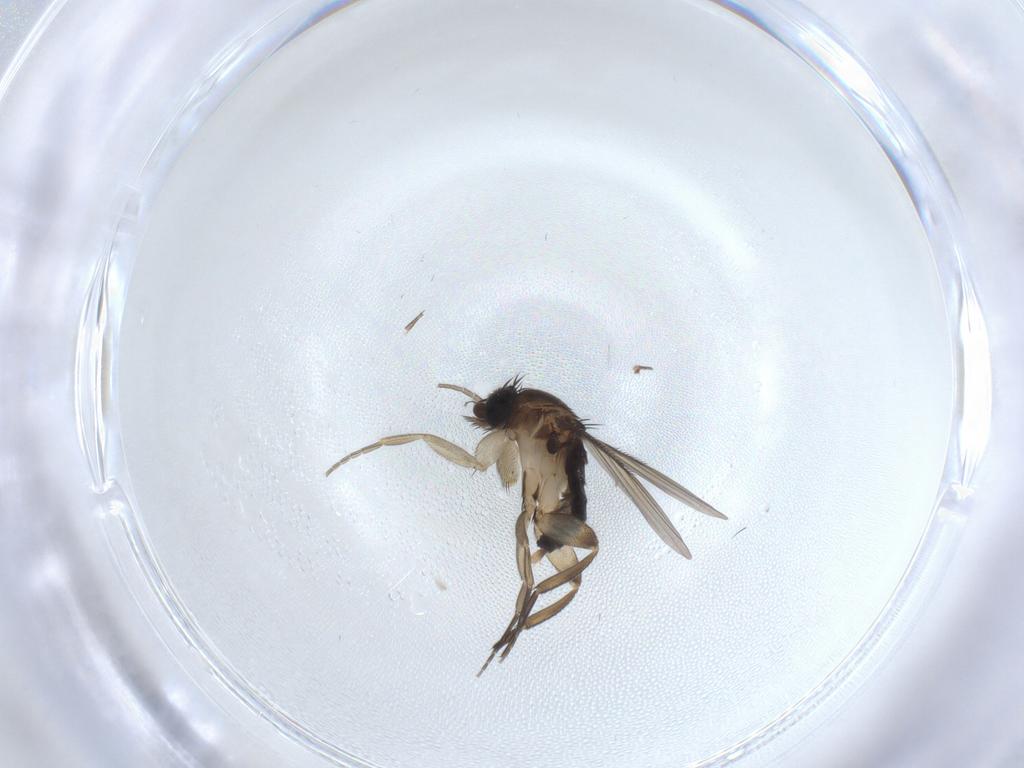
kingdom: Animalia
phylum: Arthropoda
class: Insecta
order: Diptera
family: Phoridae
